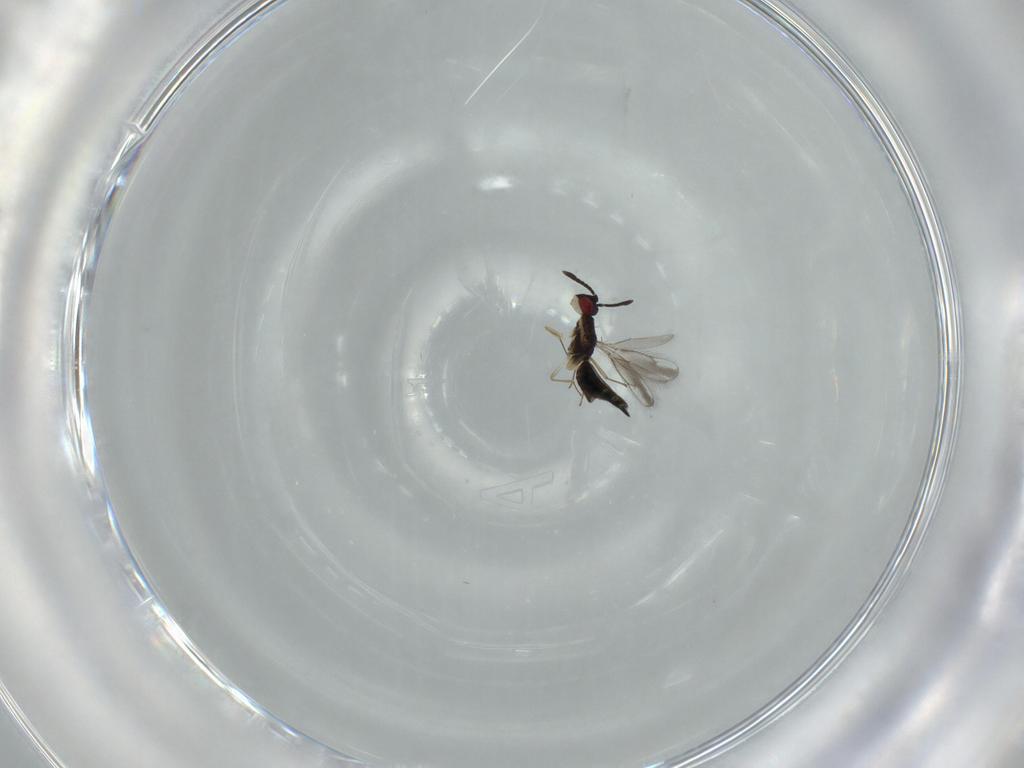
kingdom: Animalia
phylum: Arthropoda
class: Insecta
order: Hymenoptera
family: Pteromalidae
